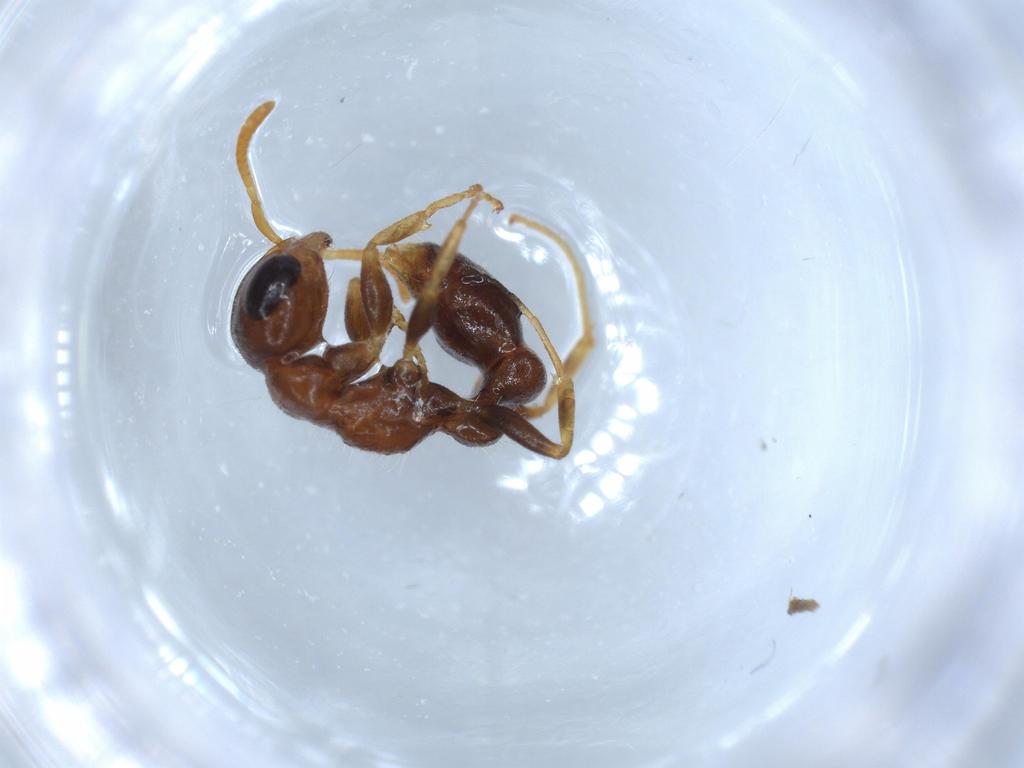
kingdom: Animalia
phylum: Arthropoda
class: Insecta
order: Hymenoptera
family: Formicidae
